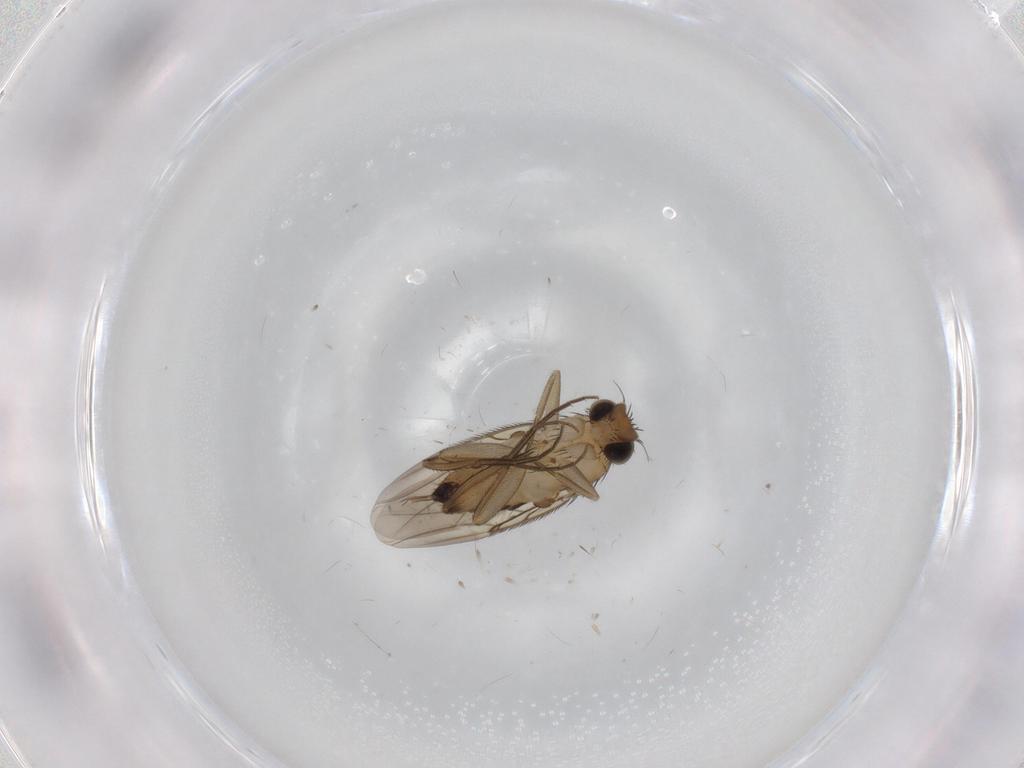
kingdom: Animalia
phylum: Arthropoda
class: Insecta
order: Diptera
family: Phoridae
